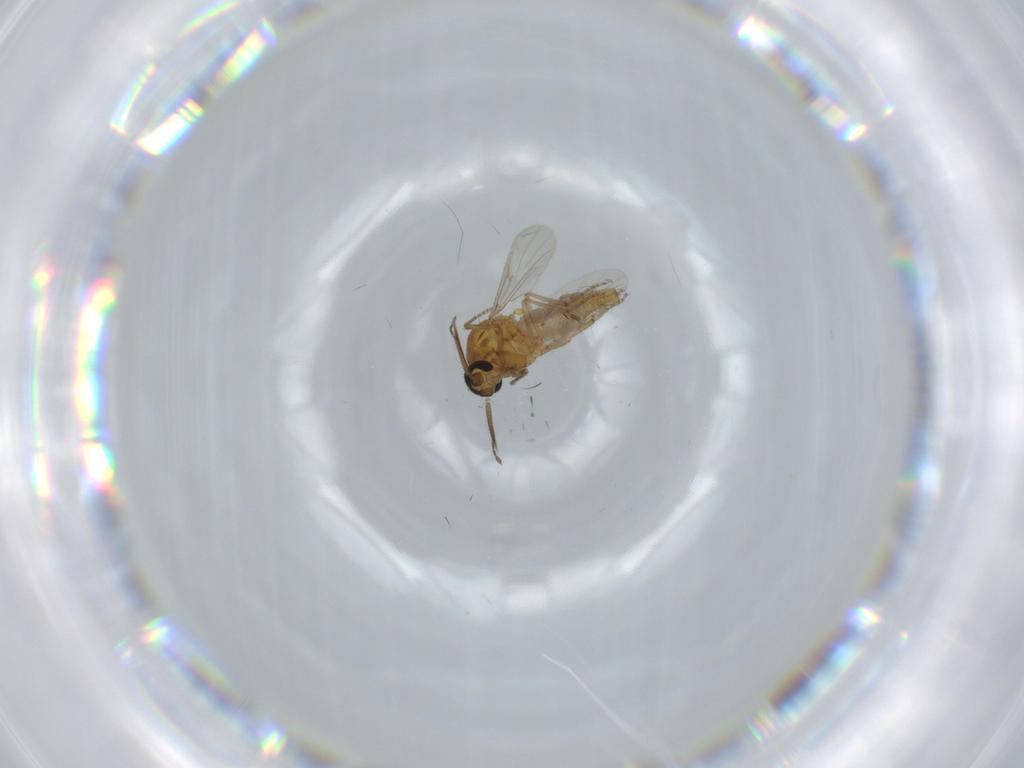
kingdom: Animalia
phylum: Arthropoda
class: Insecta
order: Diptera
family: Ceratopogonidae
